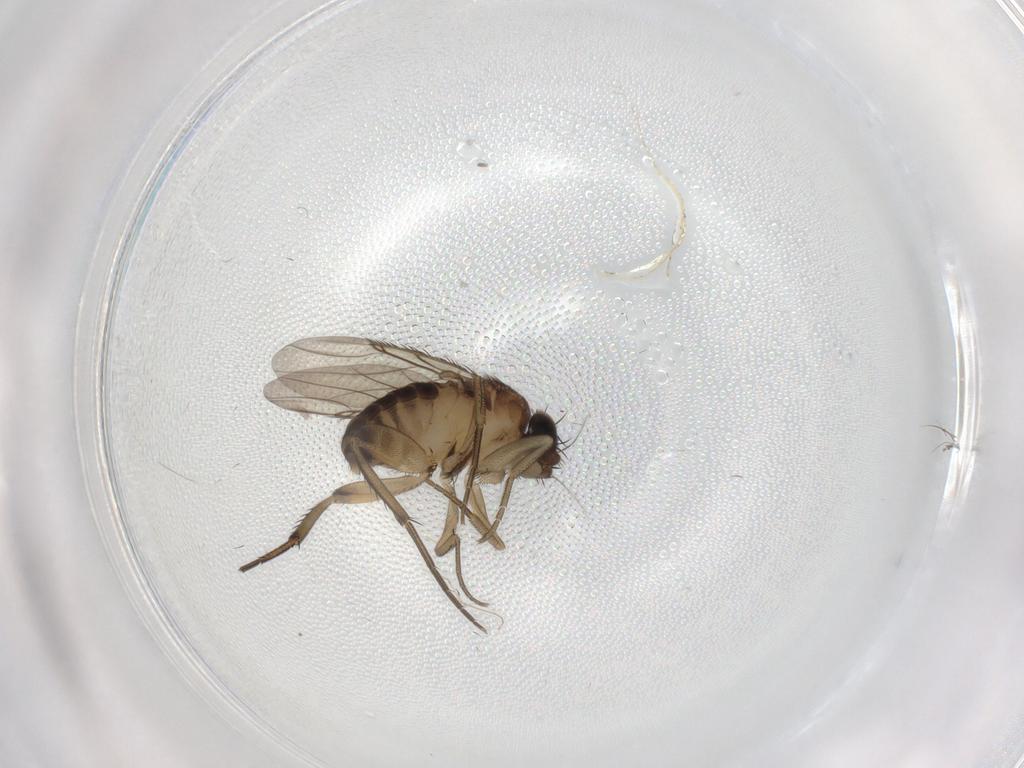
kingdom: Animalia
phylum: Arthropoda
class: Insecta
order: Diptera
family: Phoridae
